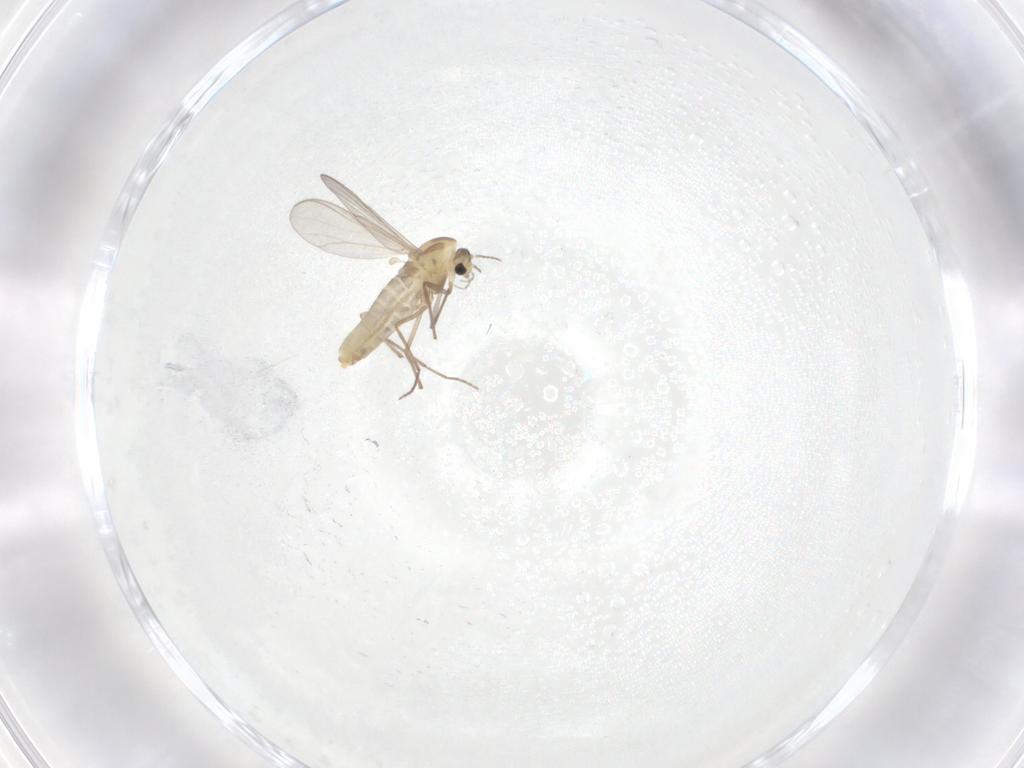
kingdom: Animalia
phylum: Arthropoda
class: Insecta
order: Diptera
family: Chironomidae
